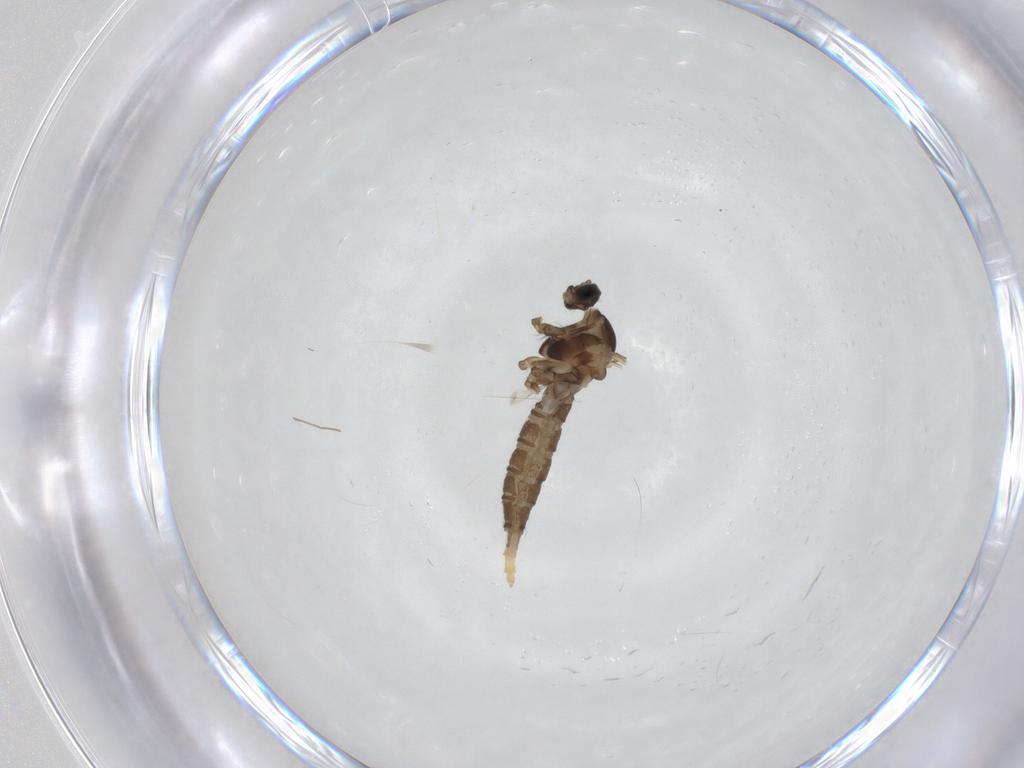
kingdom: Animalia
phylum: Arthropoda
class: Insecta
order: Diptera
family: Cecidomyiidae
